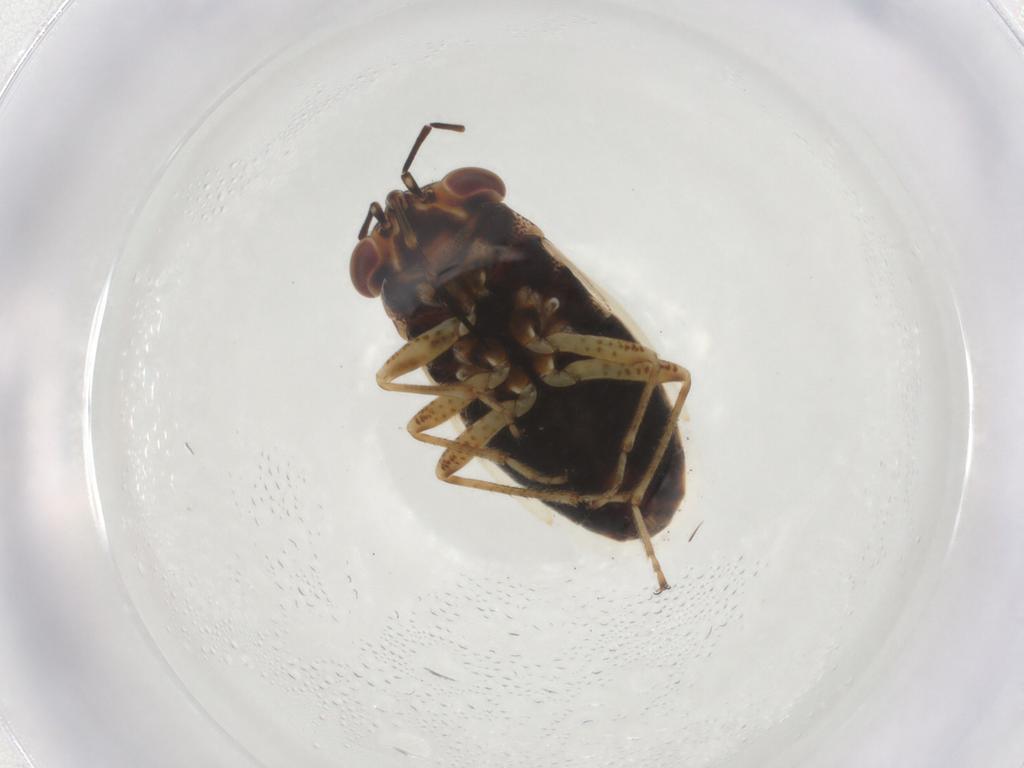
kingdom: Animalia
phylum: Arthropoda
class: Insecta
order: Hemiptera
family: Geocoridae
